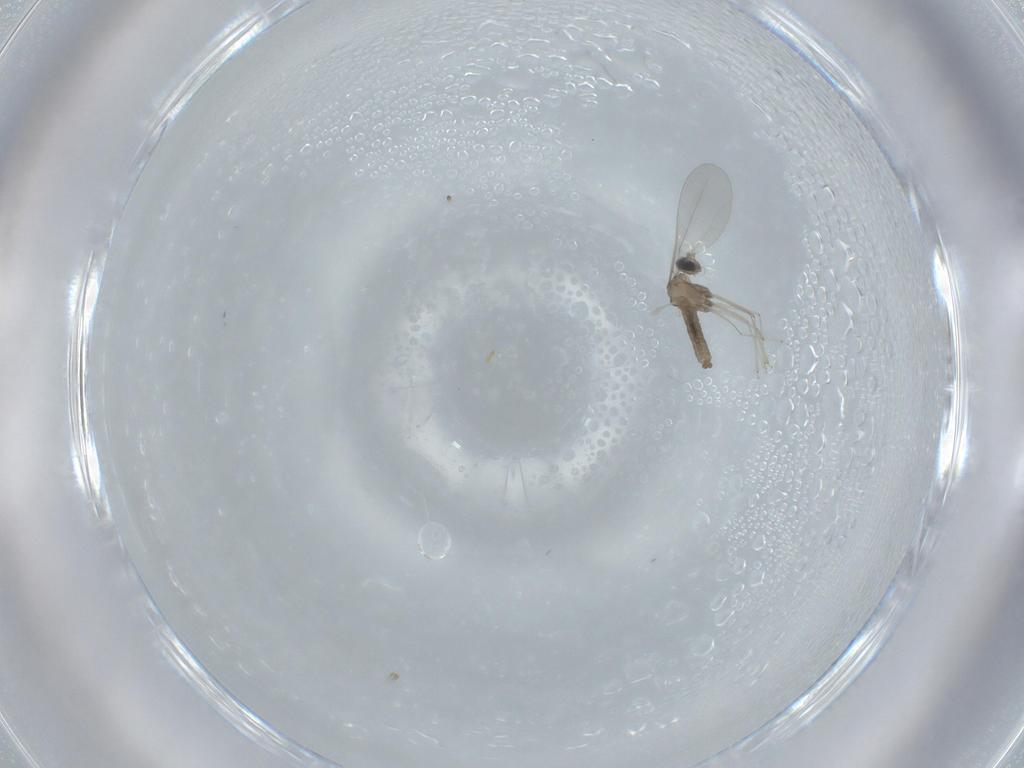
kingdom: Animalia
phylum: Arthropoda
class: Insecta
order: Diptera
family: Cecidomyiidae
